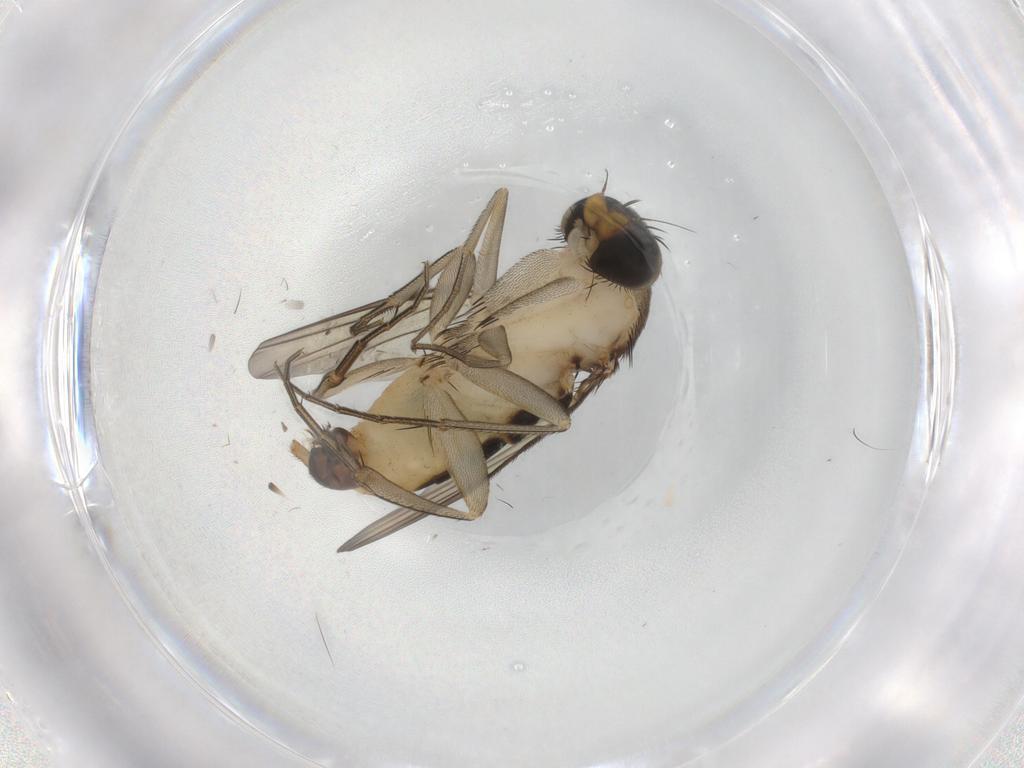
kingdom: Animalia
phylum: Arthropoda
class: Insecta
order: Diptera
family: Phoridae
